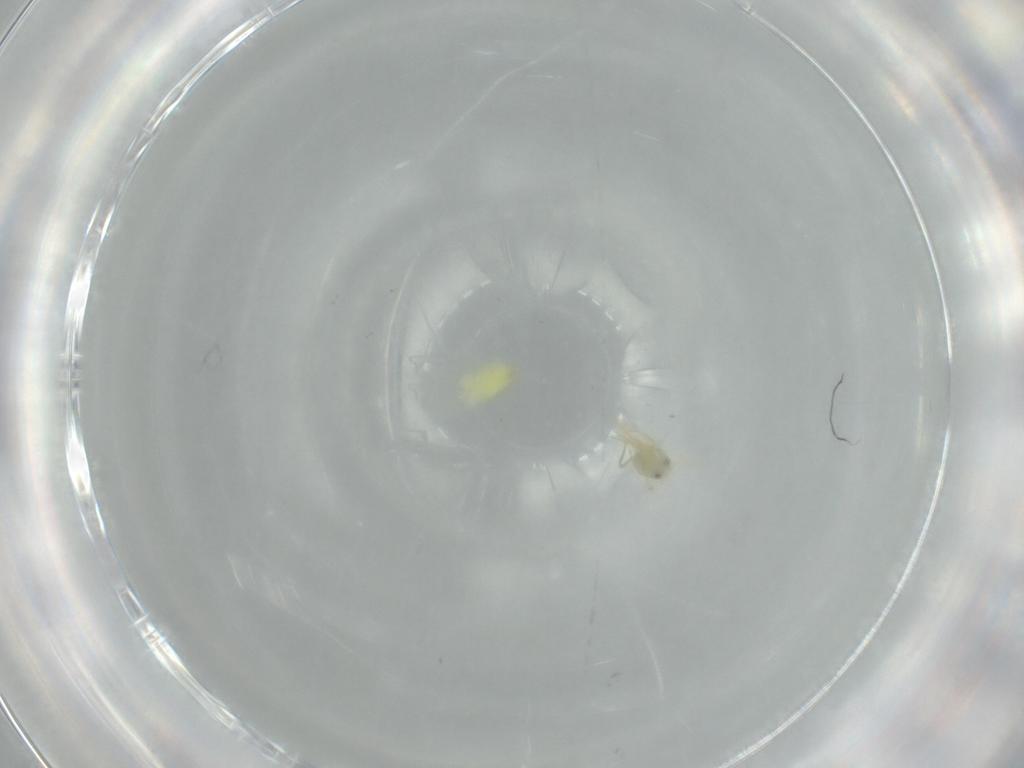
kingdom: Animalia
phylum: Arthropoda
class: Insecta
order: Hemiptera
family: Aleyrodidae
